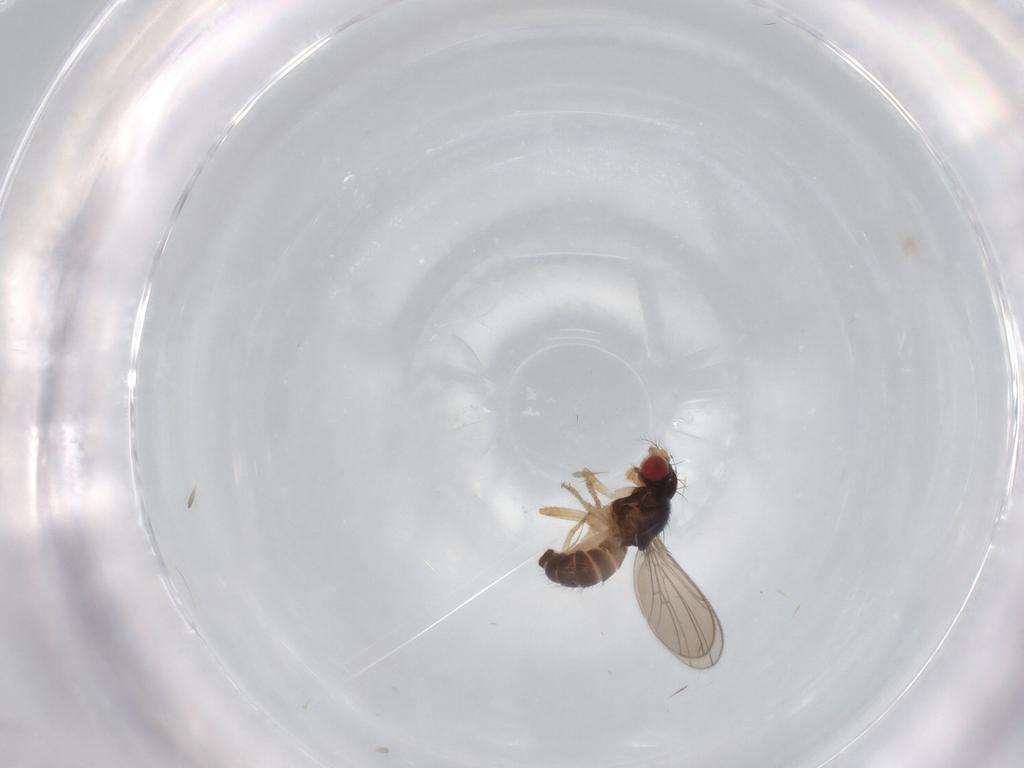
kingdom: Animalia
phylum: Arthropoda
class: Insecta
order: Diptera
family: Drosophilidae
